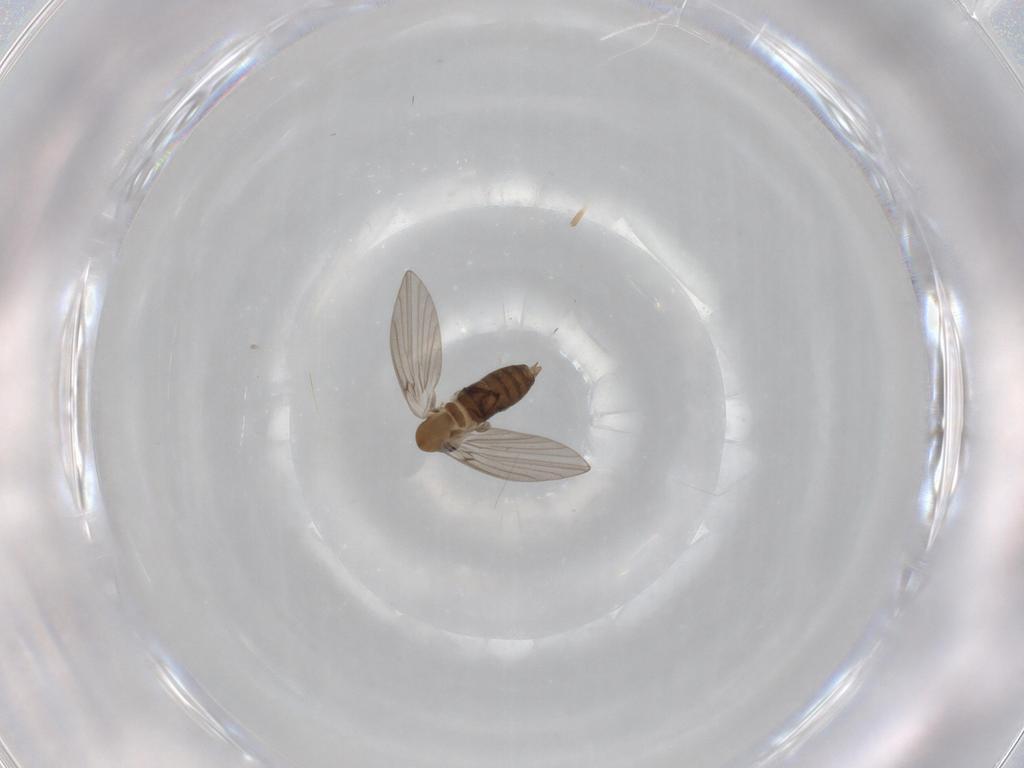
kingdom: Animalia
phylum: Arthropoda
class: Insecta
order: Diptera
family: Psychodidae
